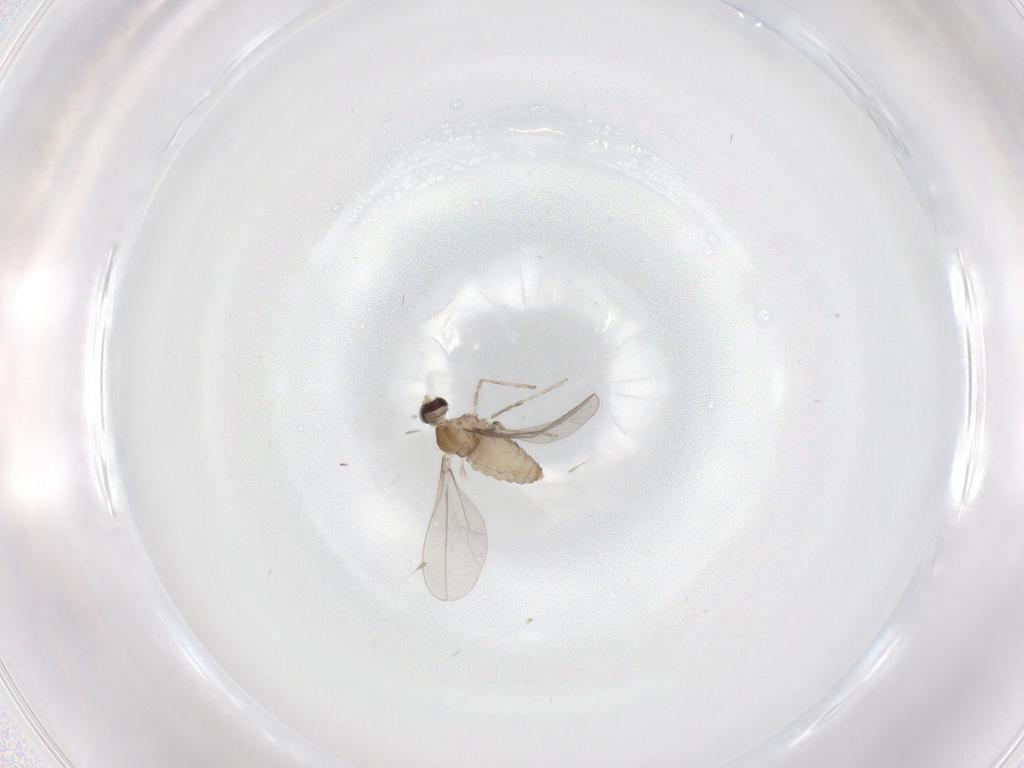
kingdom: Animalia
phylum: Arthropoda
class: Insecta
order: Diptera
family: Cecidomyiidae
